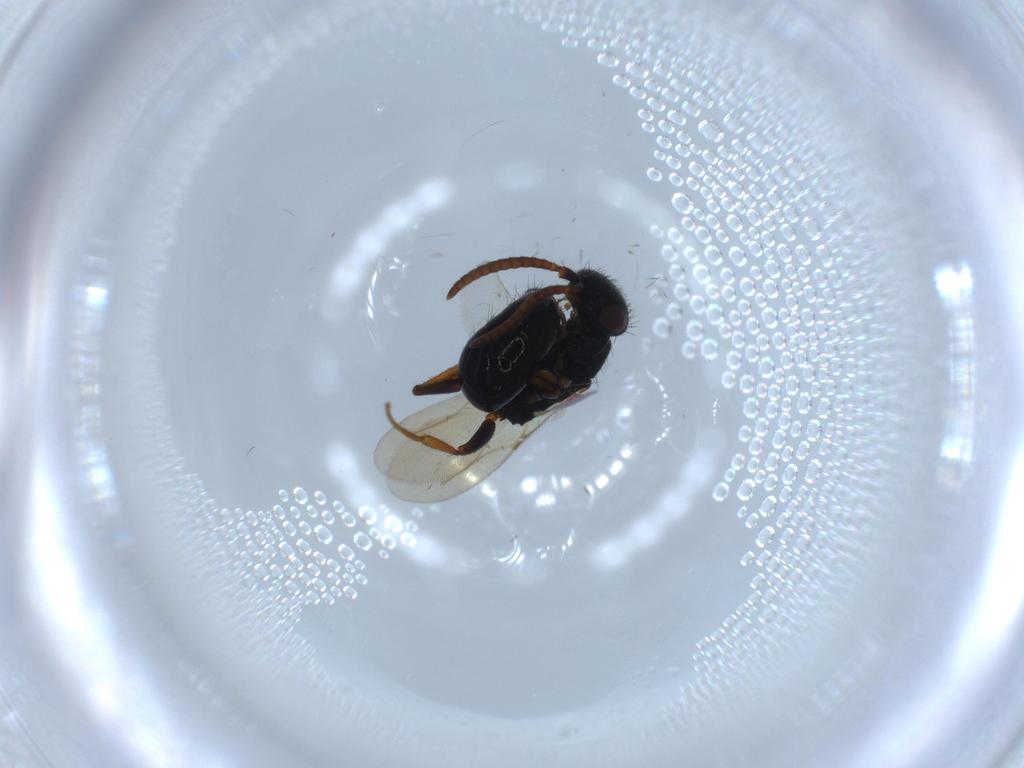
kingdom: Animalia
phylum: Arthropoda
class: Insecta
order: Hymenoptera
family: Bethylidae
